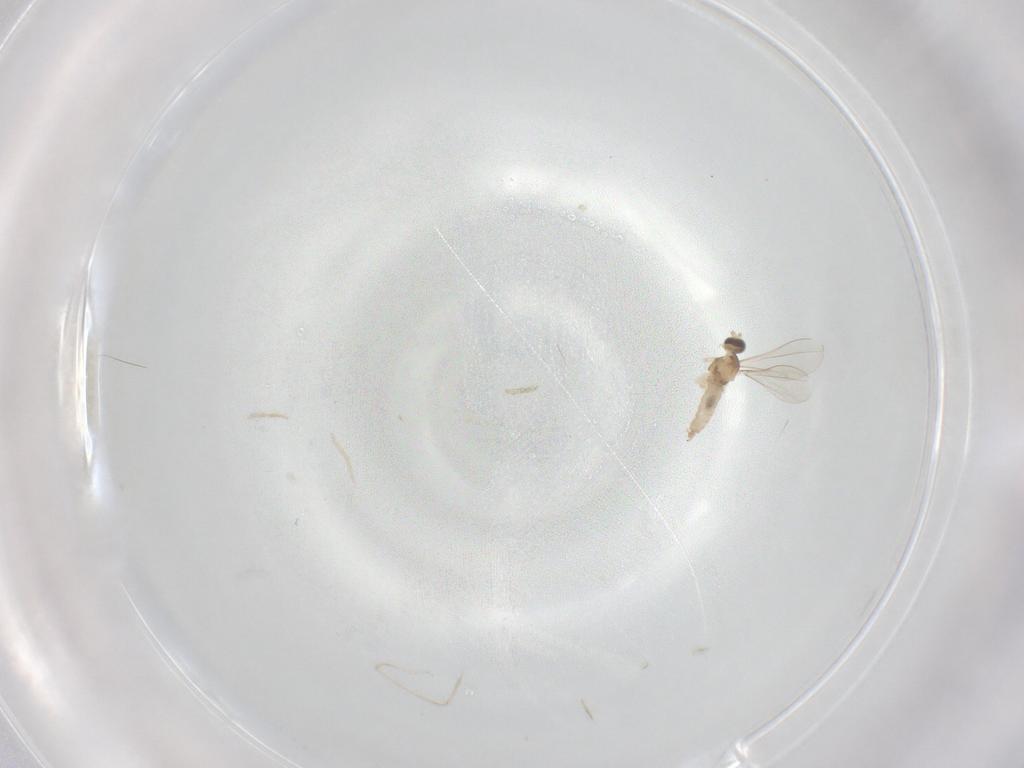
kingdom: Animalia
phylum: Arthropoda
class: Insecta
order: Diptera
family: Cecidomyiidae
